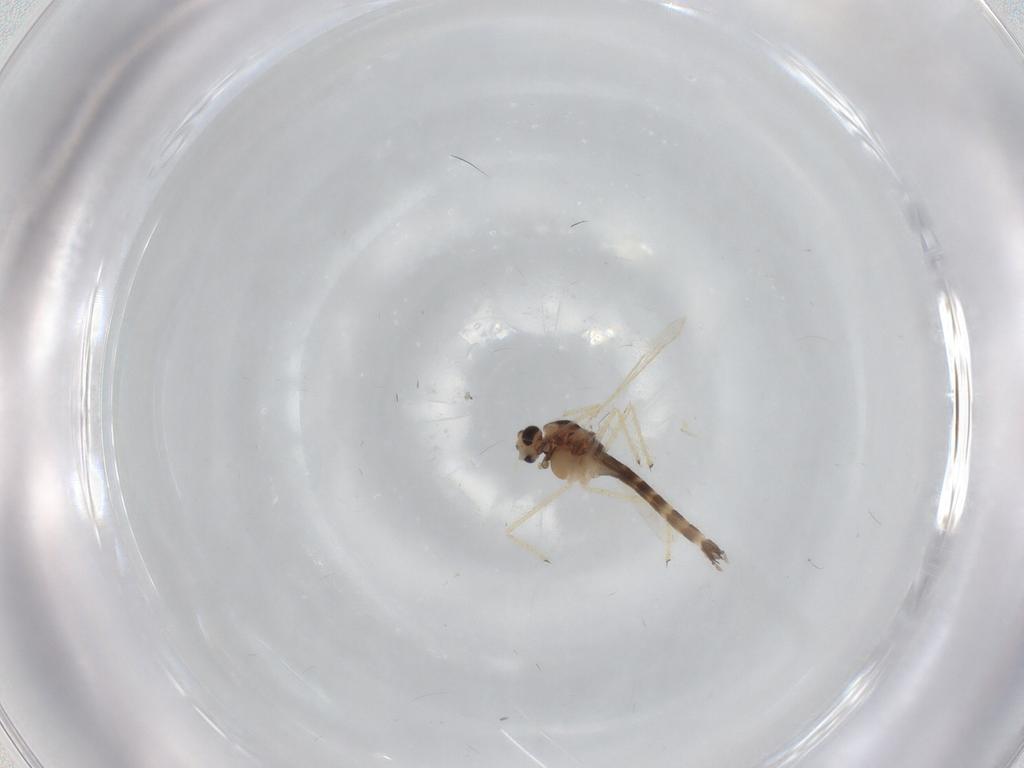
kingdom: Animalia
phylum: Arthropoda
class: Insecta
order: Diptera
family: Chironomidae
